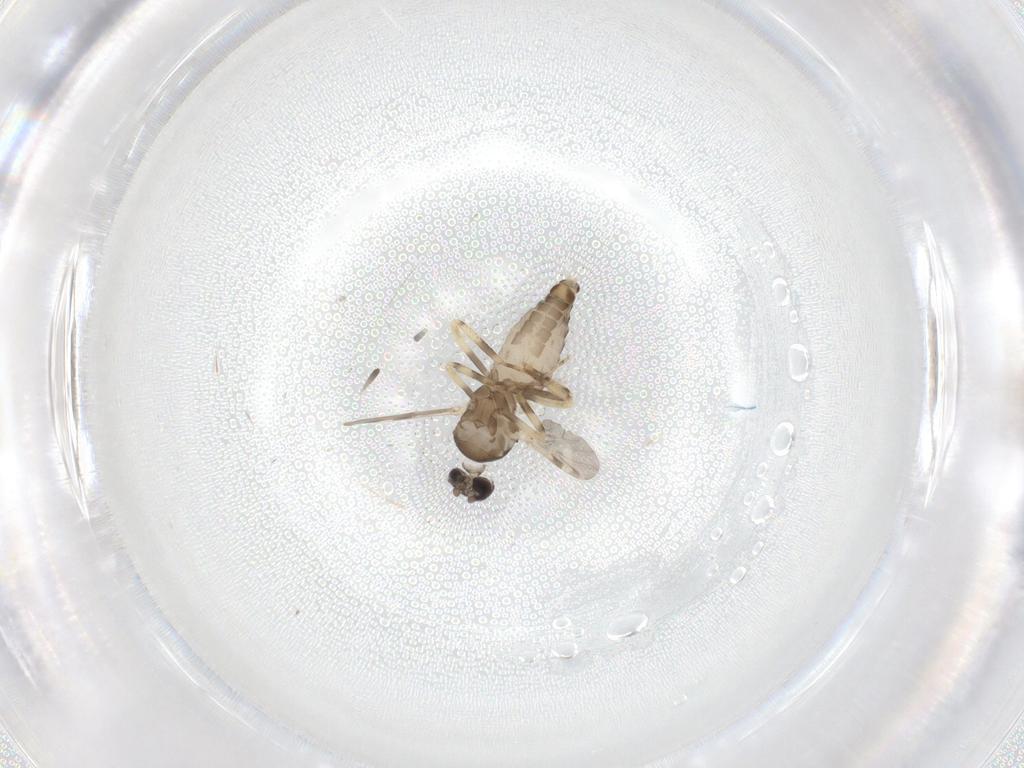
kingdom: Animalia
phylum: Arthropoda
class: Insecta
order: Diptera
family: Ceratopogonidae
